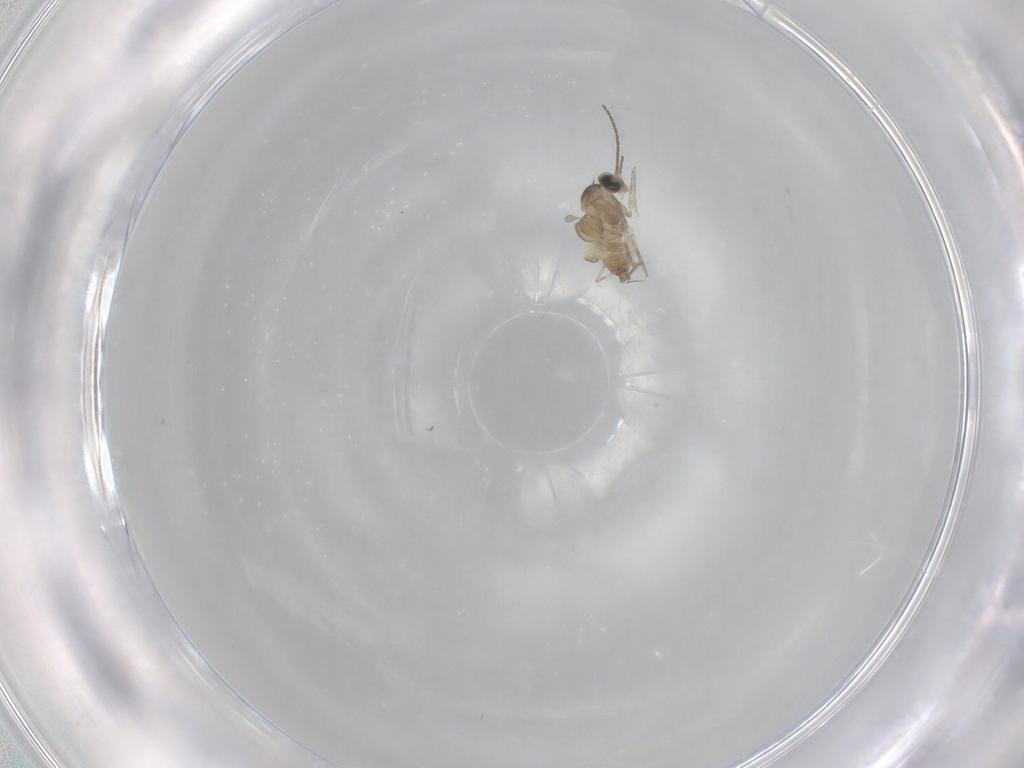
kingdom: Animalia
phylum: Arthropoda
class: Insecta
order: Diptera
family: Cecidomyiidae
